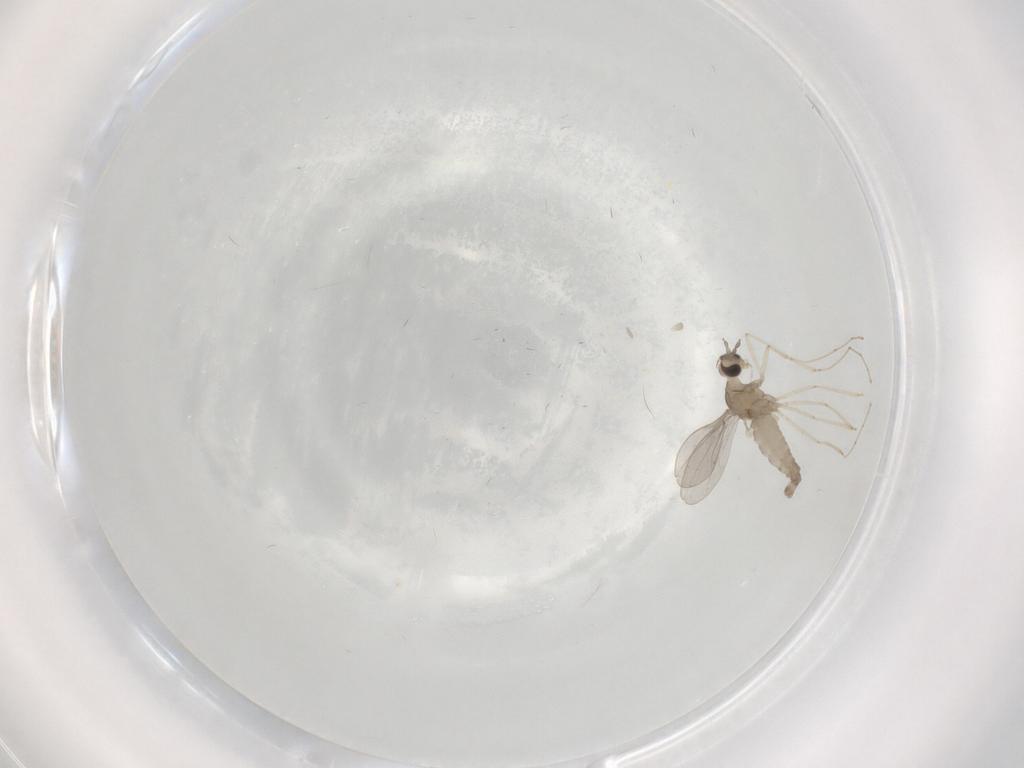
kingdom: Animalia
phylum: Arthropoda
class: Insecta
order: Diptera
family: Cecidomyiidae
